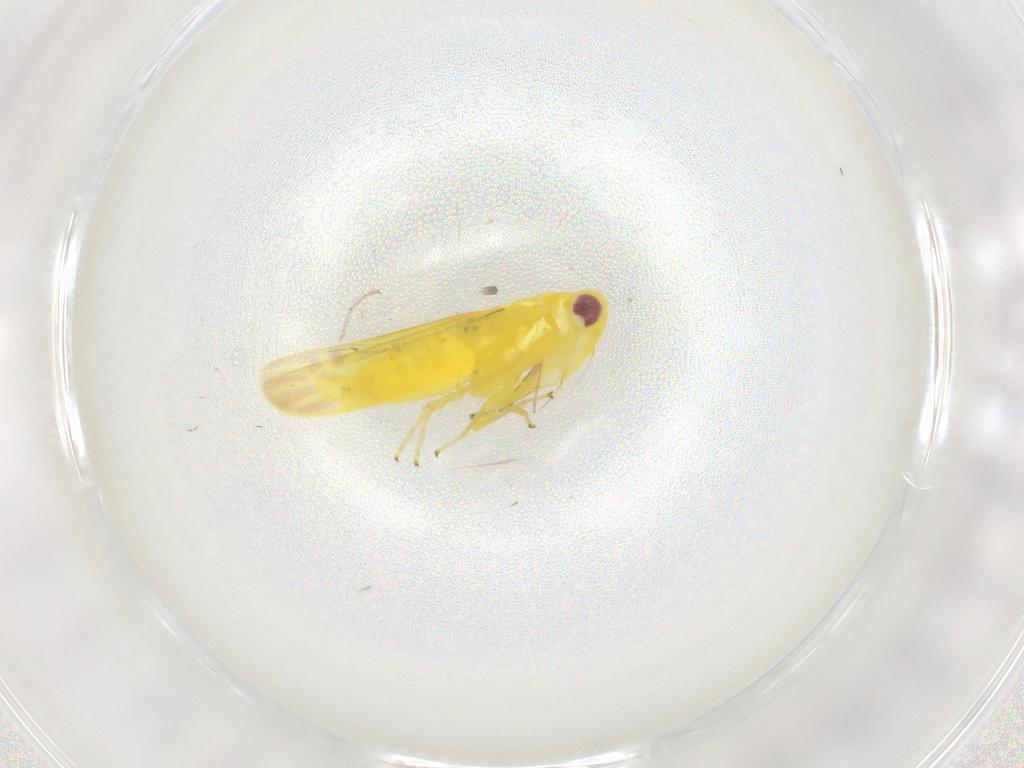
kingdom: Animalia
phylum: Arthropoda
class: Insecta
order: Hemiptera
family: Cicadellidae
